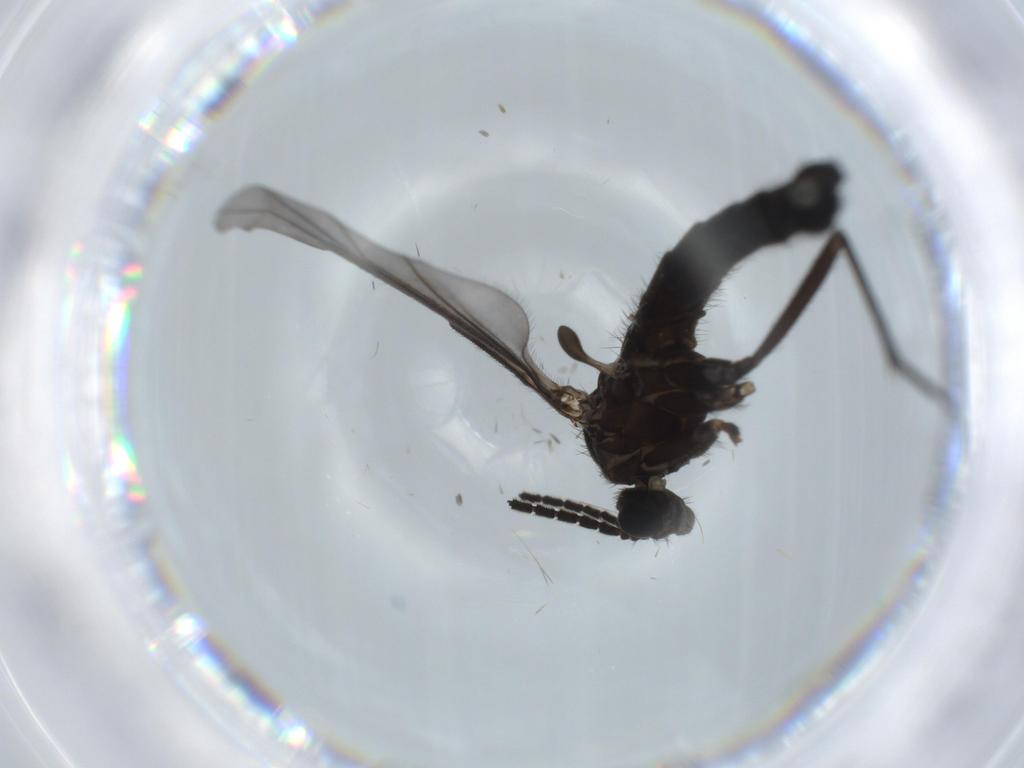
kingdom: Animalia
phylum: Arthropoda
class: Insecta
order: Diptera
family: Sciaridae
